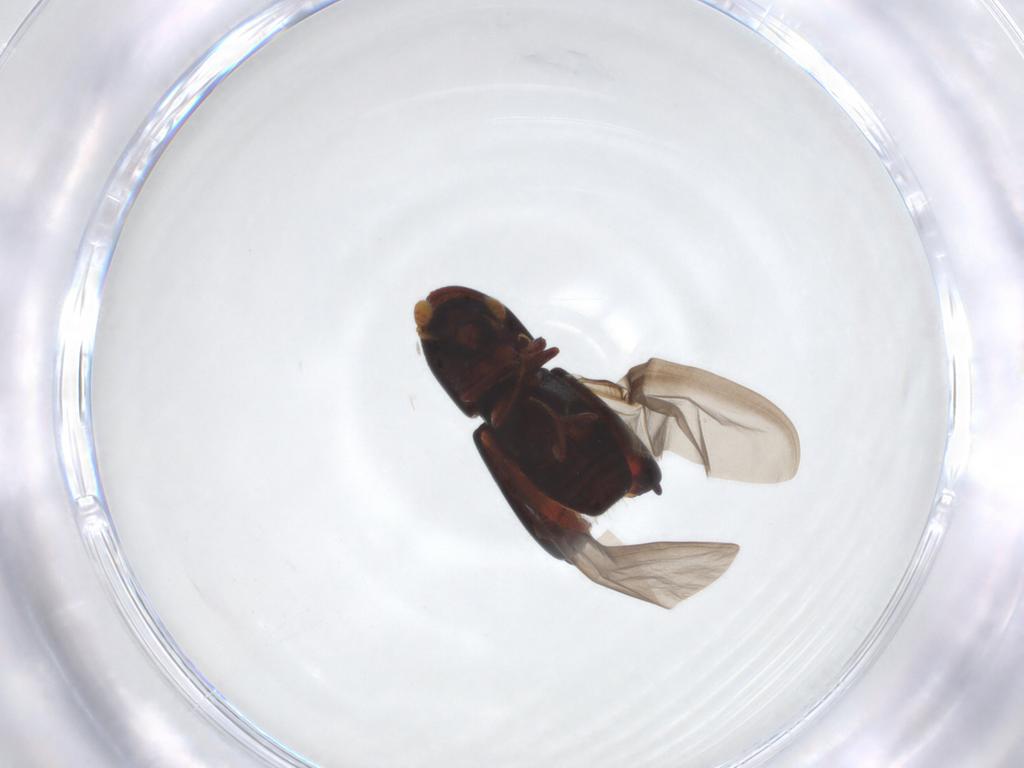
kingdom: Animalia
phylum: Arthropoda
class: Insecta
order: Coleoptera
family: Curculionidae
